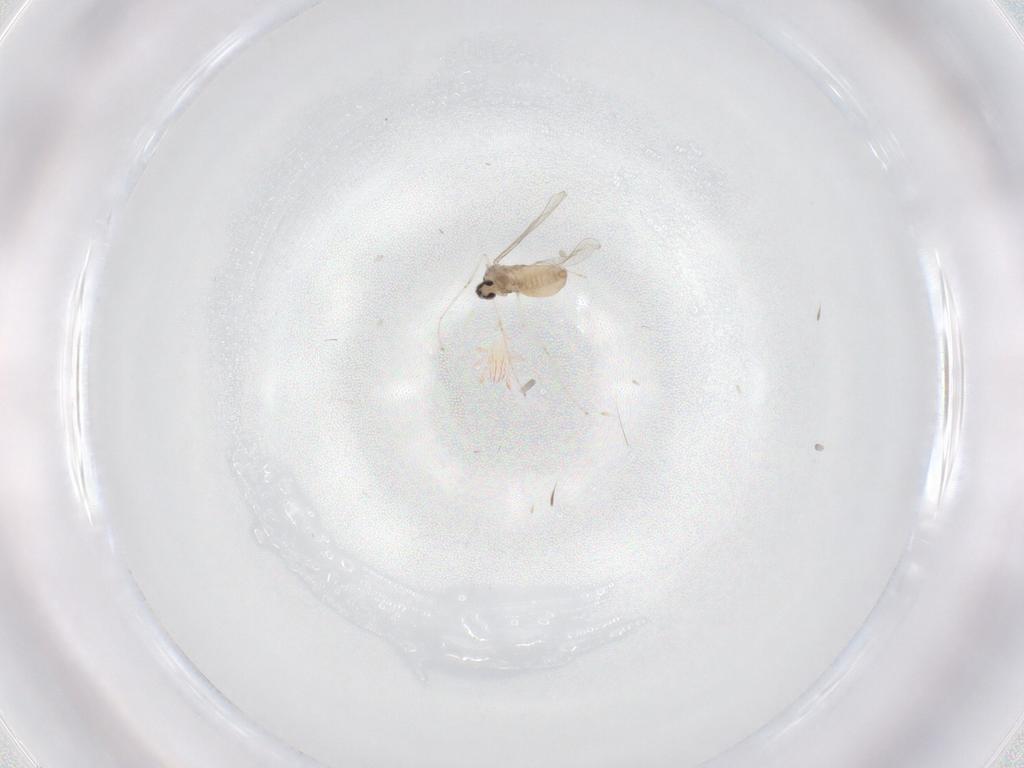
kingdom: Animalia
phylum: Arthropoda
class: Insecta
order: Diptera
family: Cecidomyiidae
